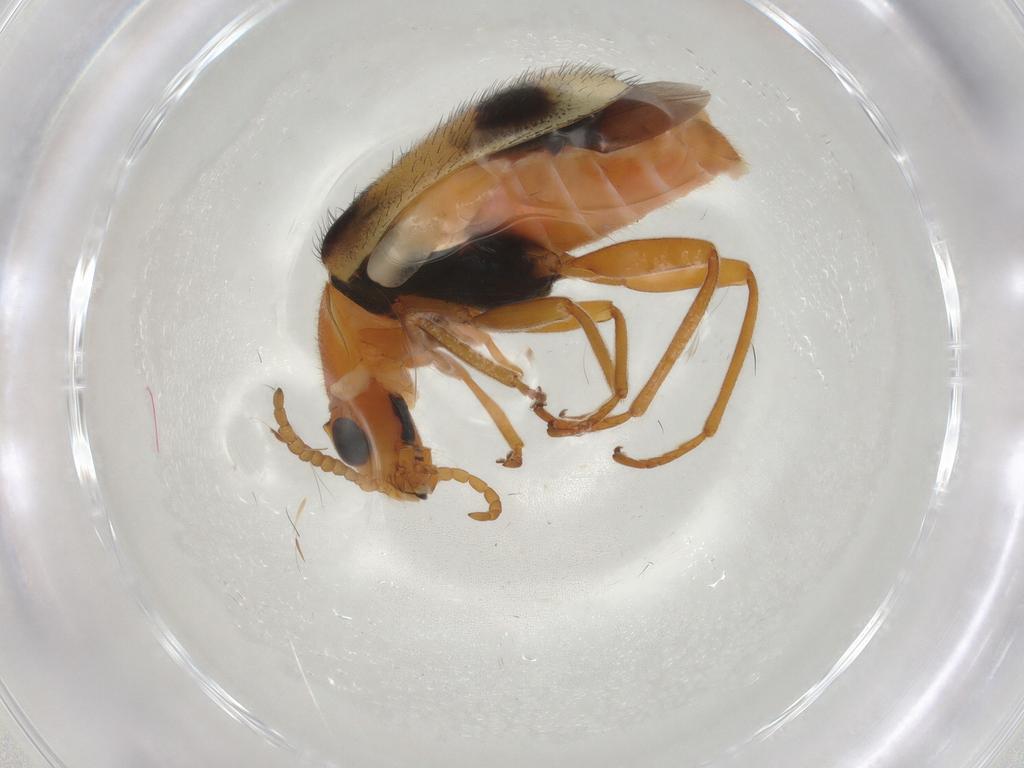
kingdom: Animalia
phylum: Arthropoda
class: Insecta
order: Coleoptera
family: Melyridae
